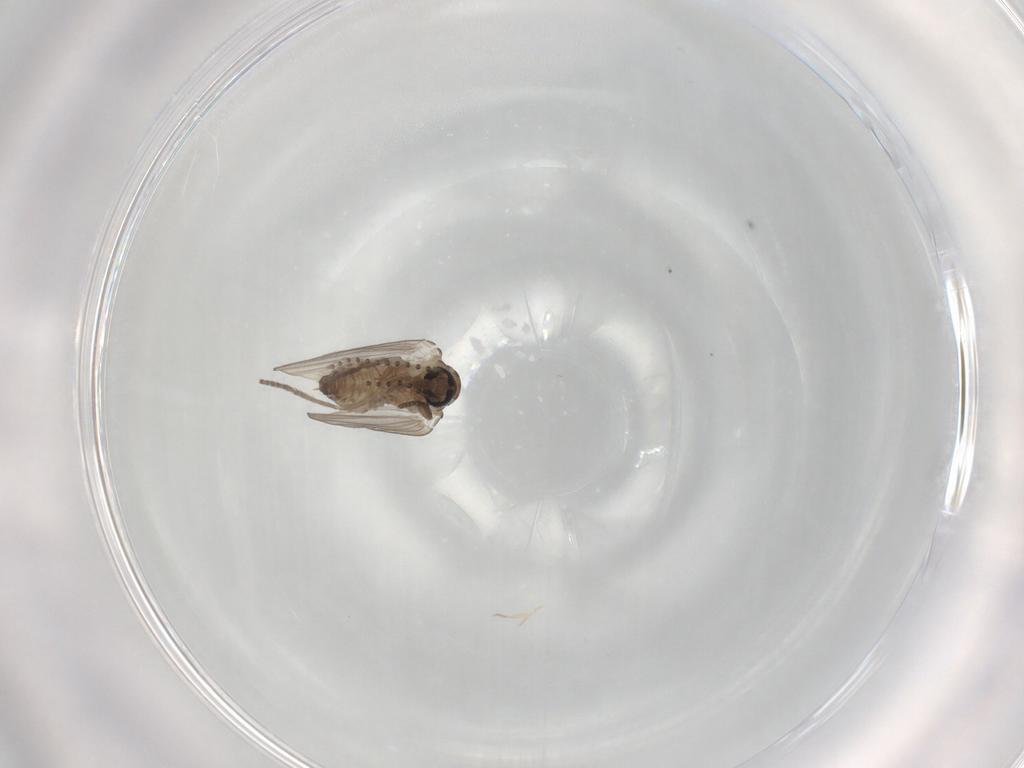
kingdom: Animalia
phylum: Arthropoda
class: Insecta
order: Diptera
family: Psychodidae
